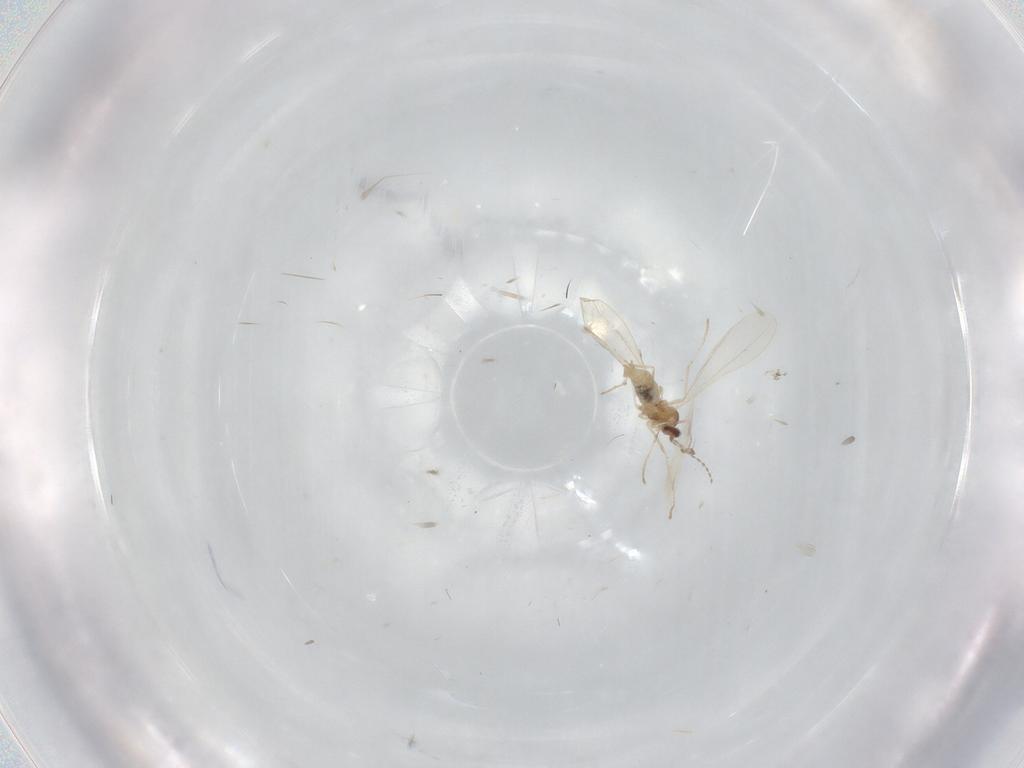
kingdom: Animalia
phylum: Arthropoda
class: Insecta
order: Diptera
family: Cecidomyiidae
